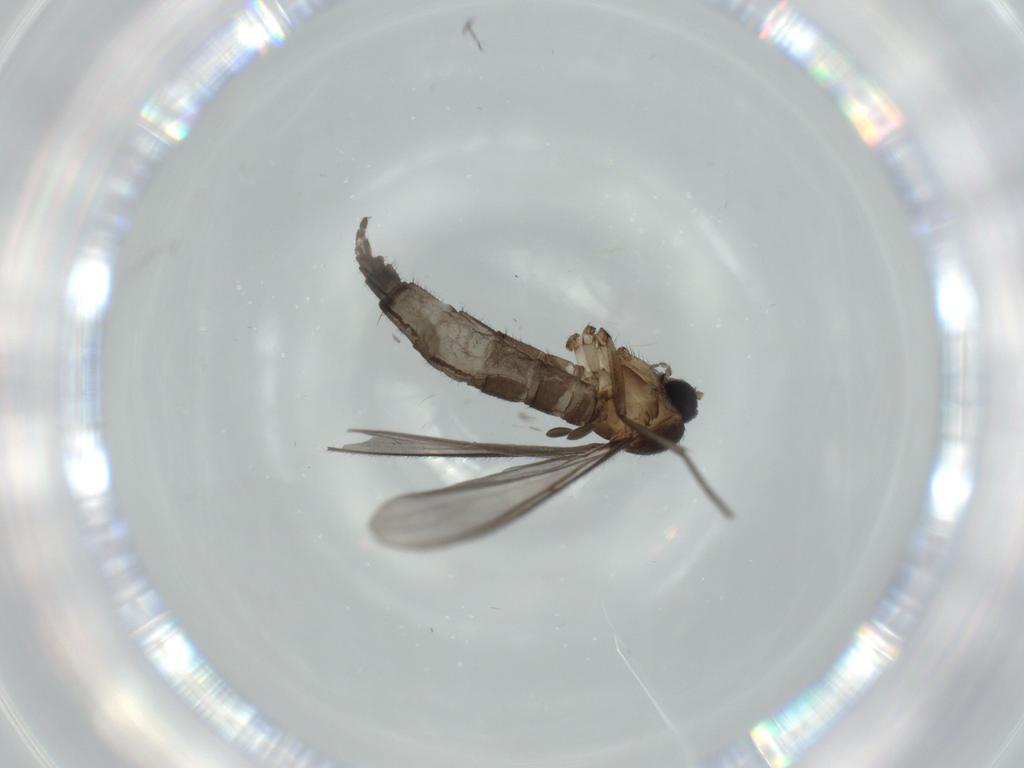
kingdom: Animalia
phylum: Arthropoda
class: Insecta
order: Diptera
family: Sciaridae
